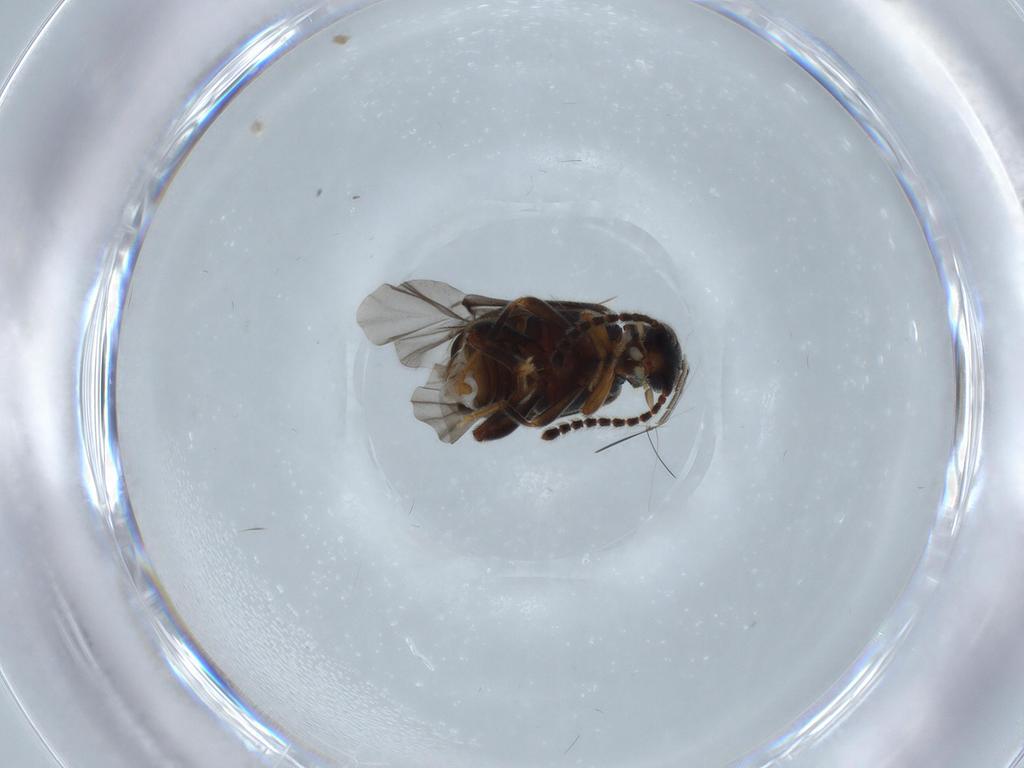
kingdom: Animalia
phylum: Arthropoda
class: Insecta
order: Coleoptera
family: Aderidae
